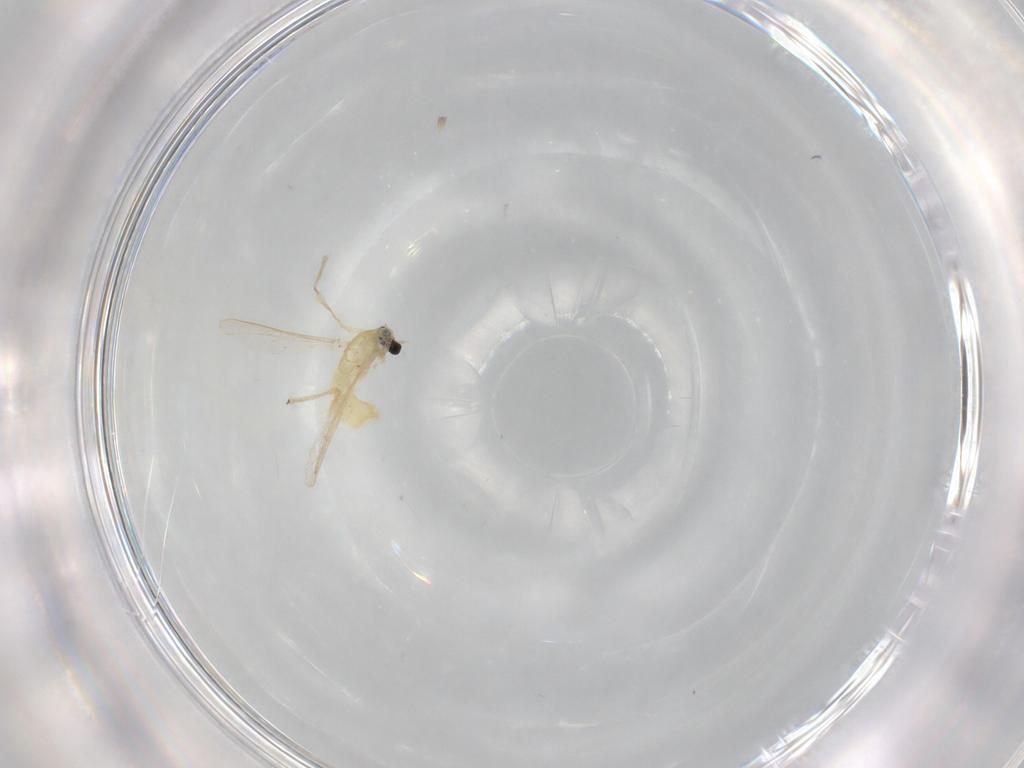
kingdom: Animalia
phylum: Arthropoda
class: Insecta
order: Diptera
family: Chironomidae
